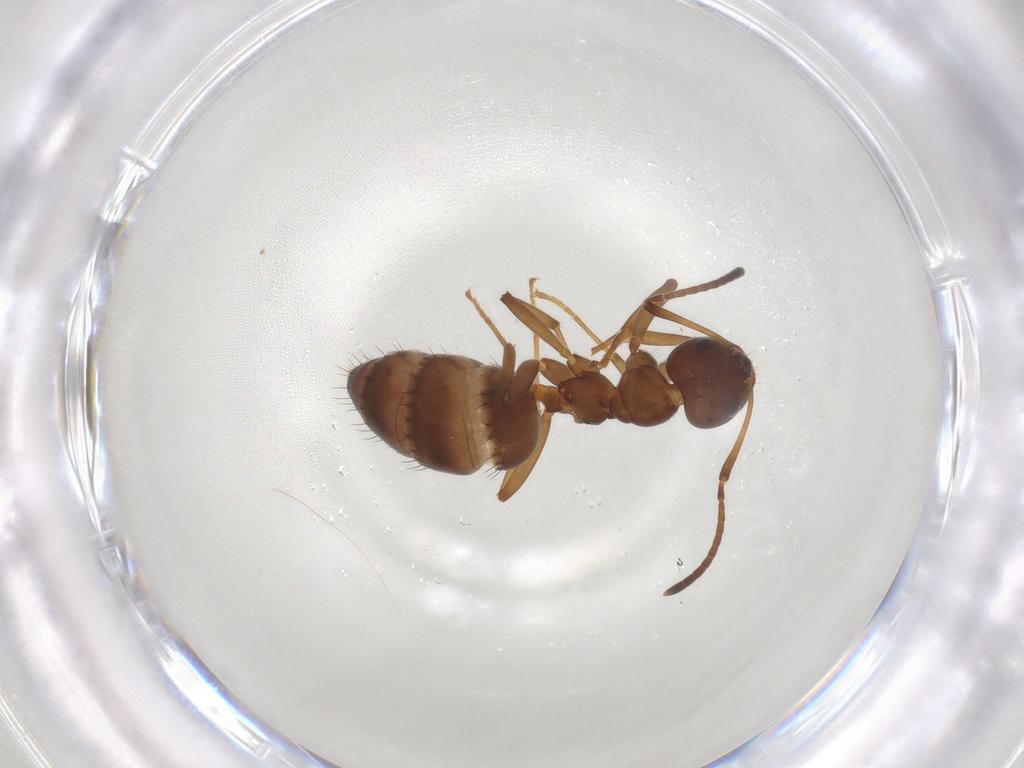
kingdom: Animalia
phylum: Arthropoda
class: Insecta
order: Hymenoptera
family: Formicidae
